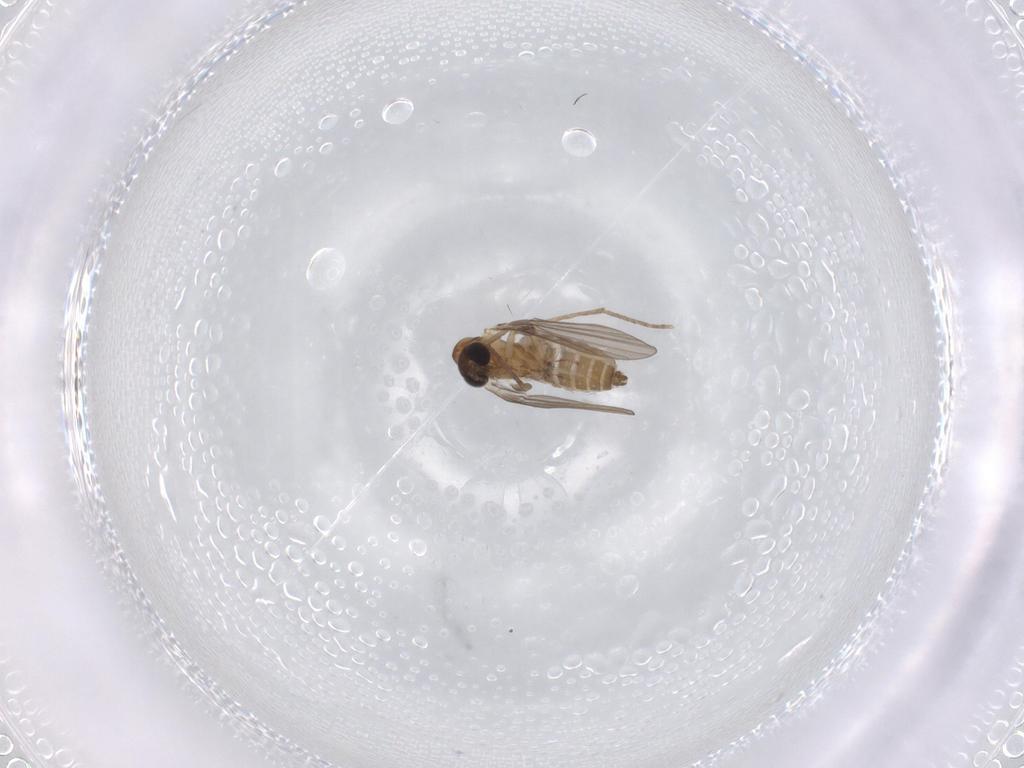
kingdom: Animalia
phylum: Arthropoda
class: Insecta
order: Diptera
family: Cecidomyiidae
